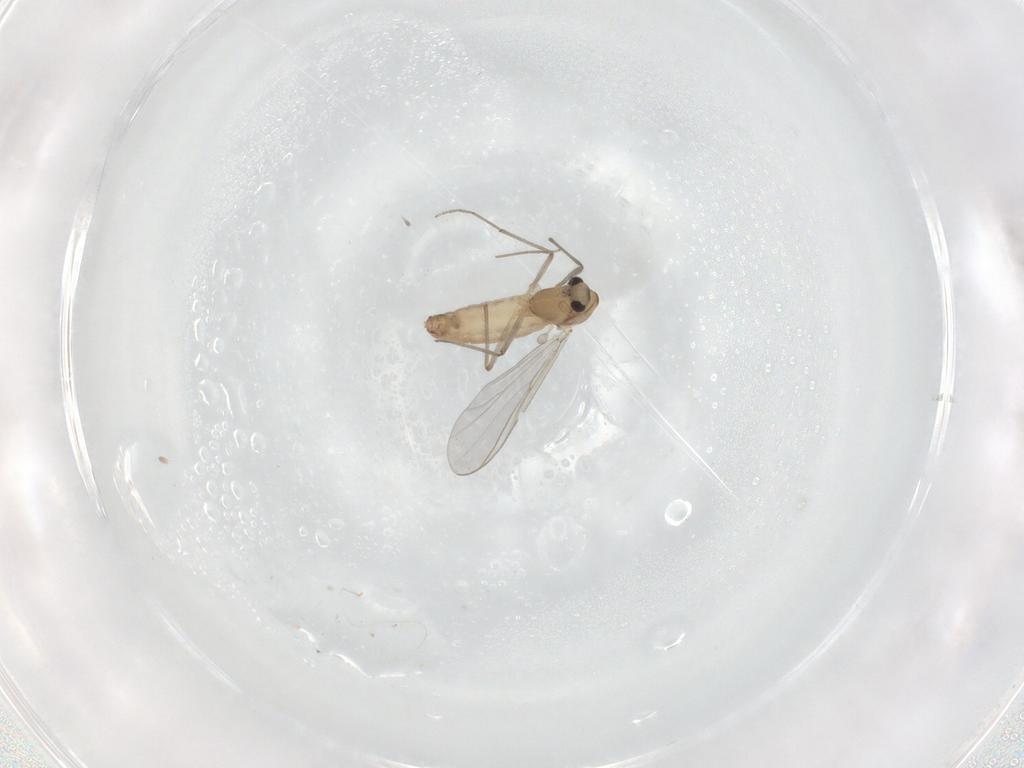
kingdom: Animalia
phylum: Arthropoda
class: Insecta
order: Diptera
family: Chironomidae
